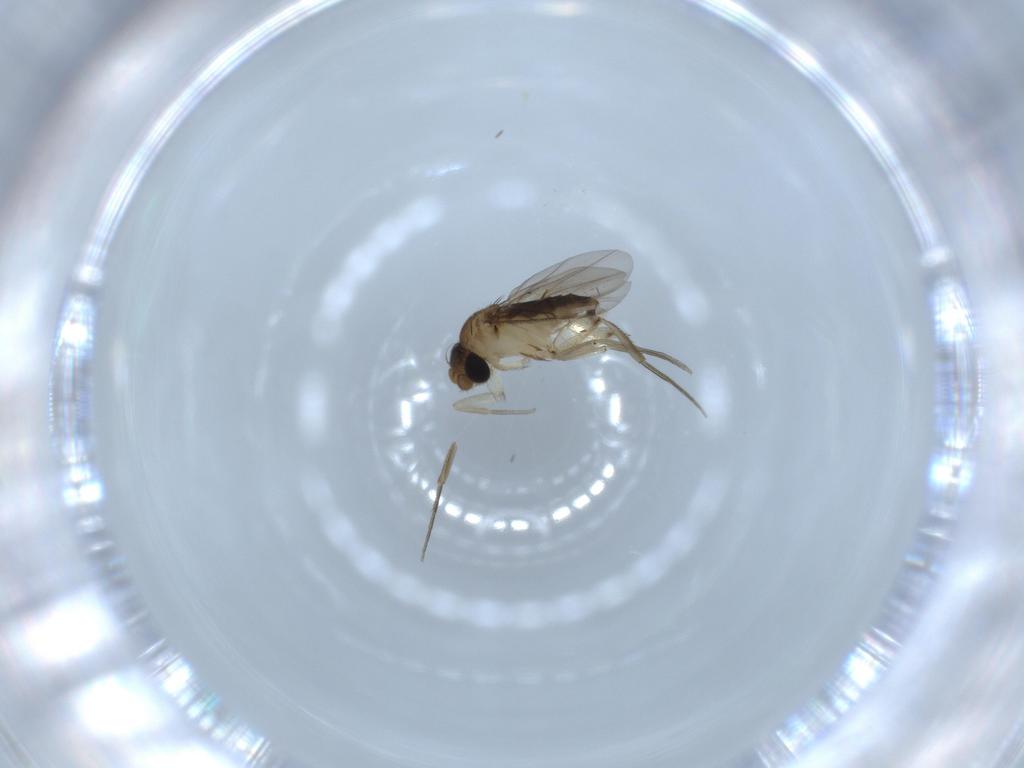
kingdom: Animalia
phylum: Arthropoda
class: Insecta
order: Diptera
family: Phoridae
